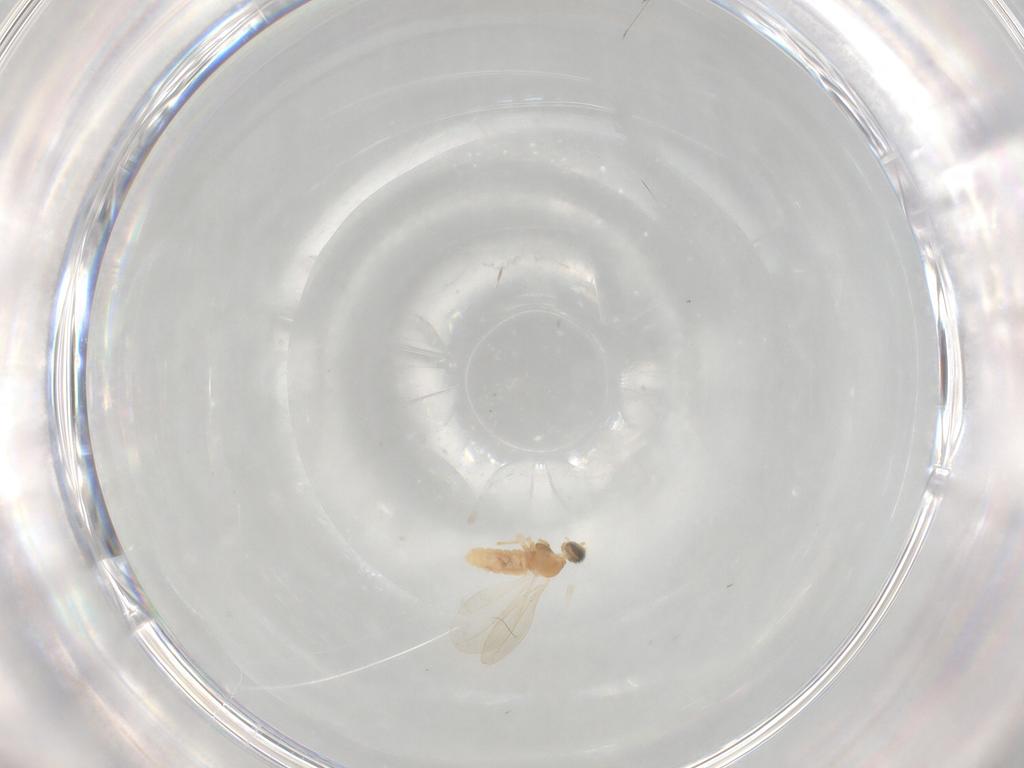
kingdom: Animalia
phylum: Arthropoda
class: Insecta
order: Diptera
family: Cecidomyiidae
